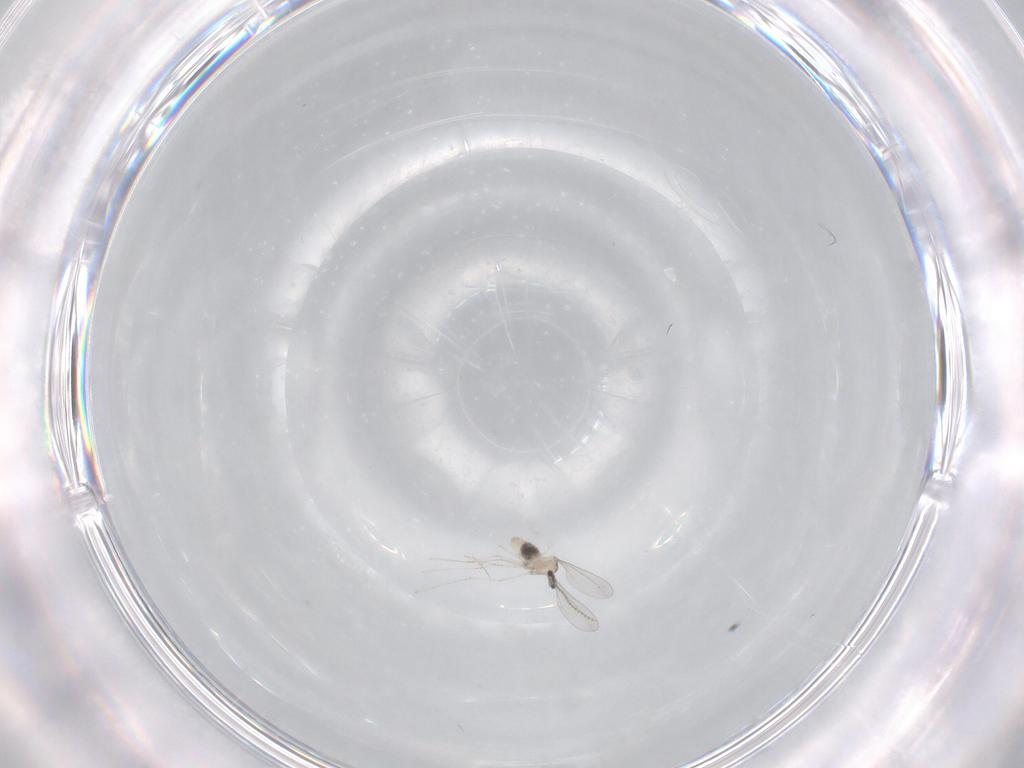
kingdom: Animalia
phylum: Arthropoda
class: Insecta
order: Diptera
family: Cecidomyiidae
